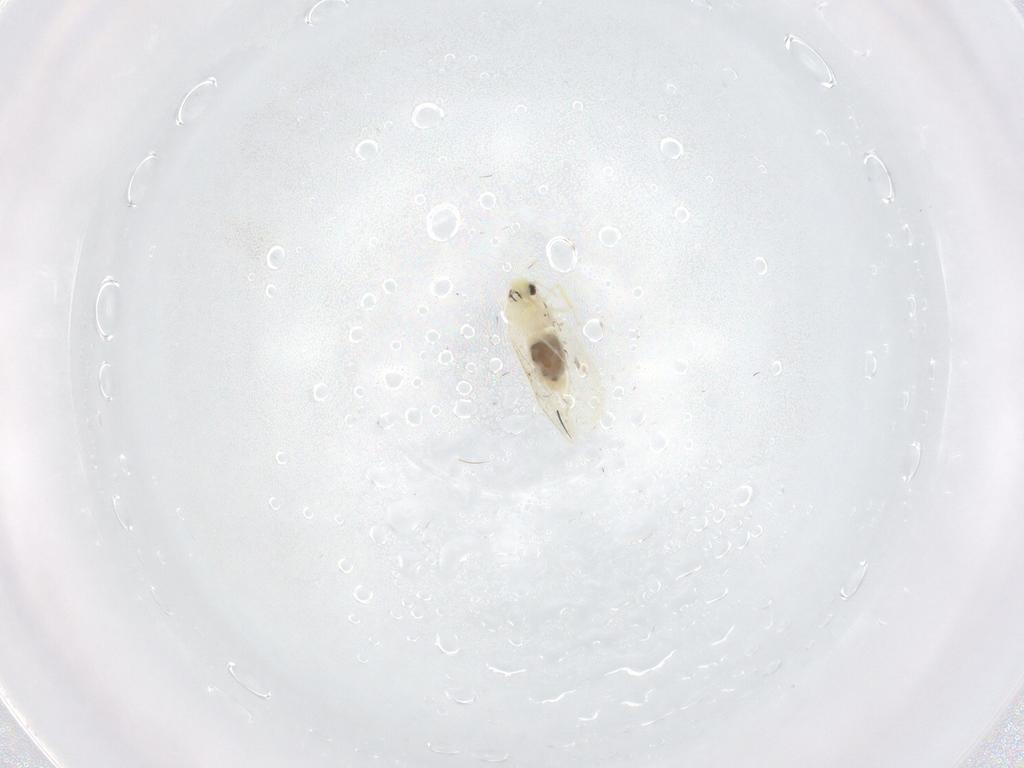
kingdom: Animalia
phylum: Arthropoda
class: Insecta
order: Hemiptera
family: Aleyrodidae
